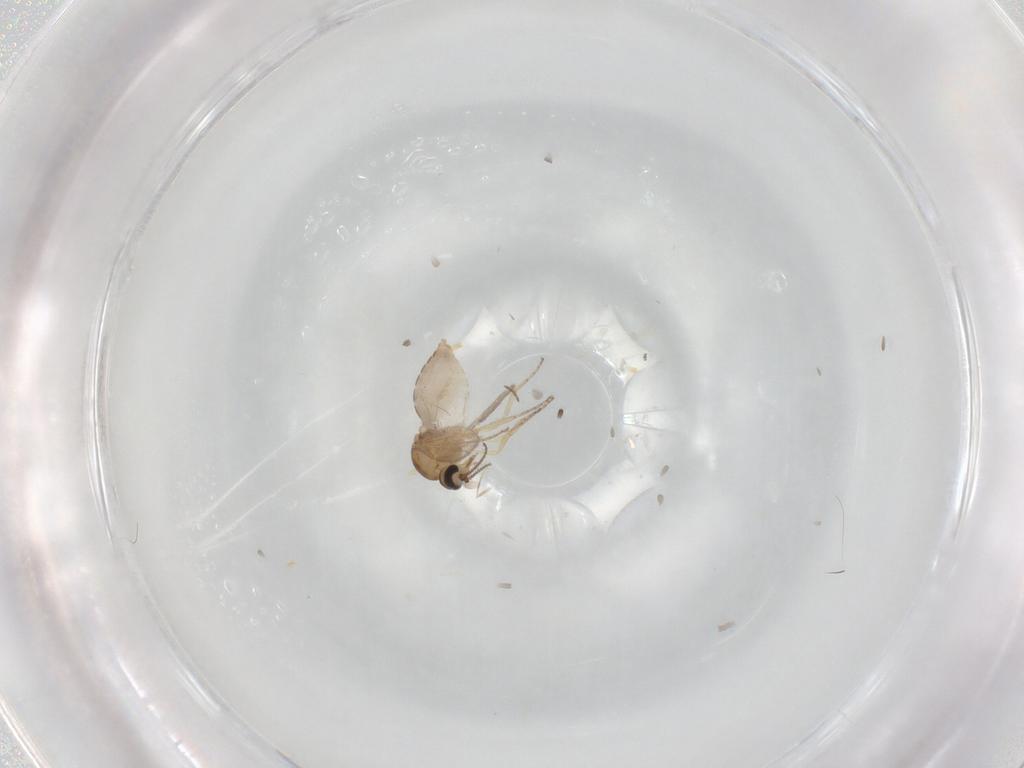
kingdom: Animalia
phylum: Arthropoda
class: Insecta
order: Diptera
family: Ceratopogonidae
